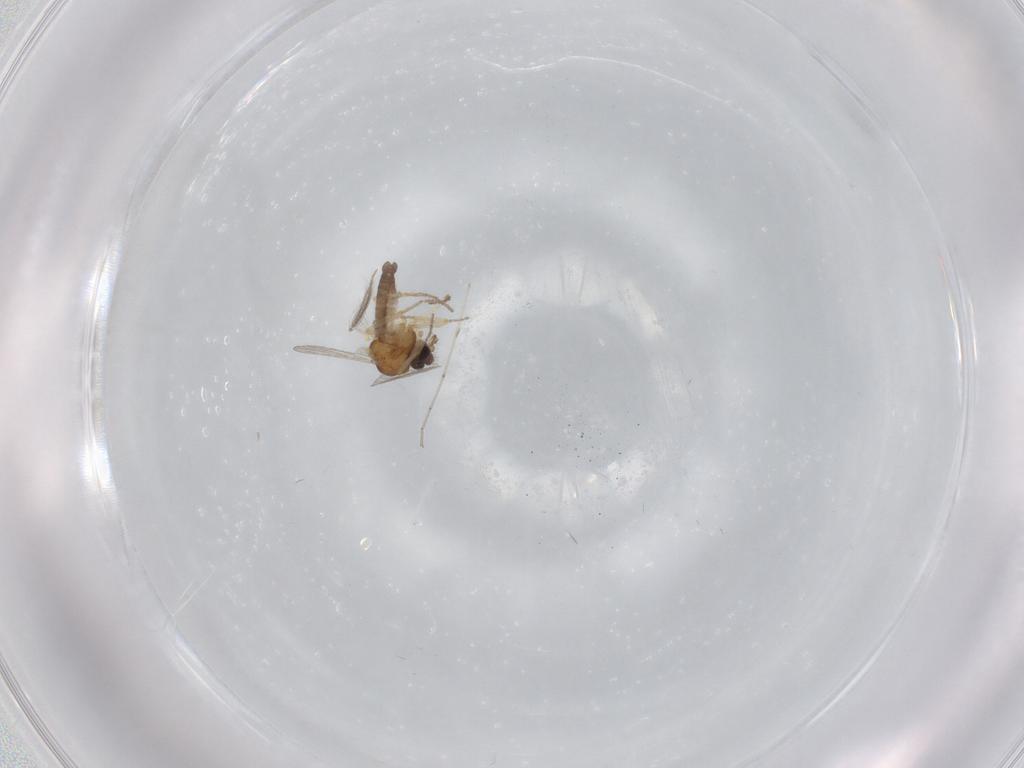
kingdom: Animalia
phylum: Arthropoda
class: Insecta
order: Diptera
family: Ceratopogonidae
